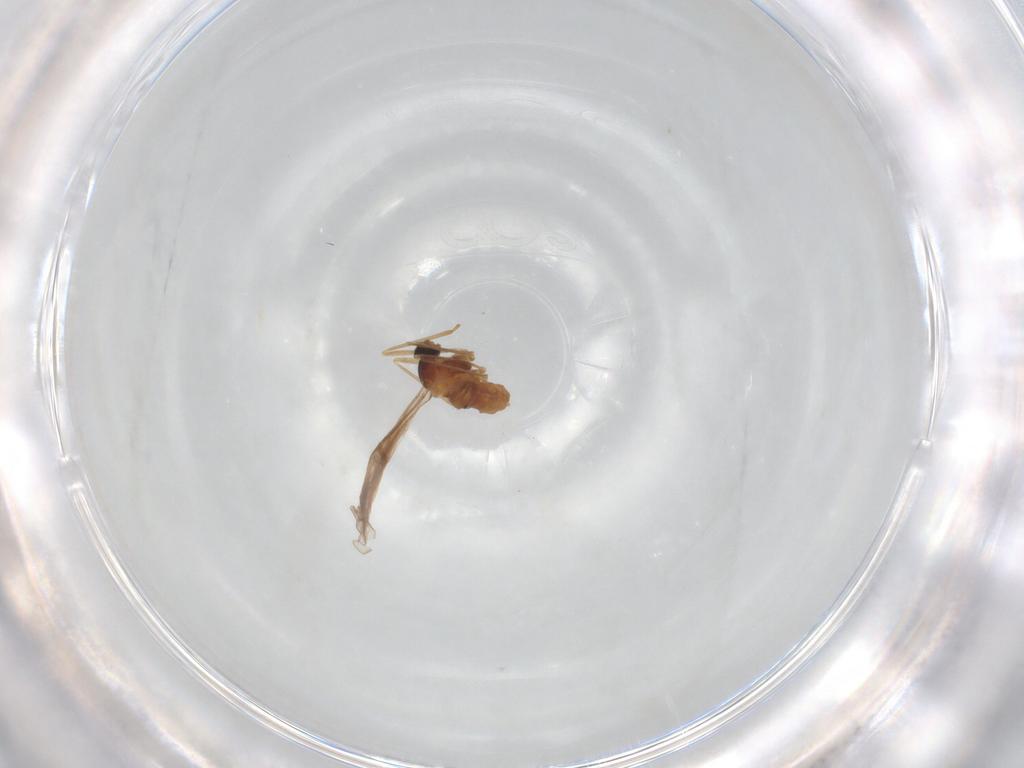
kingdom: Animalia
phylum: Arthropoda
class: Insecta
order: Diptera
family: Cecidomyiidae
